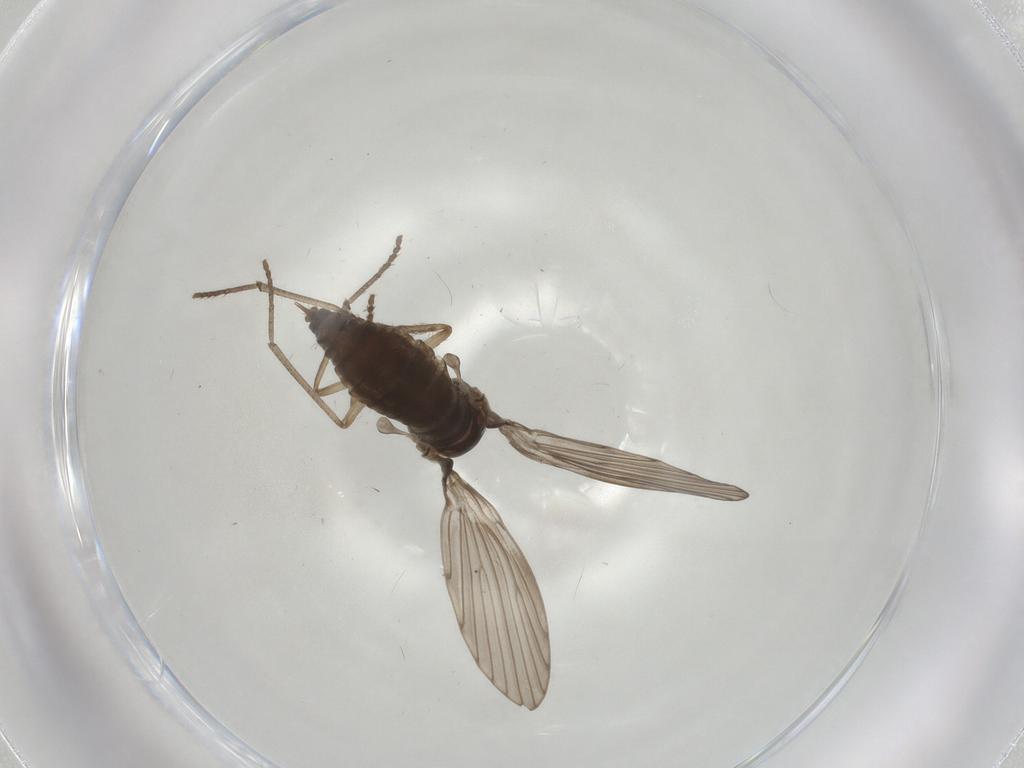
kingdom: Animalia
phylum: Arthropoda
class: Insecta
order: Diptera
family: Psychodidae
